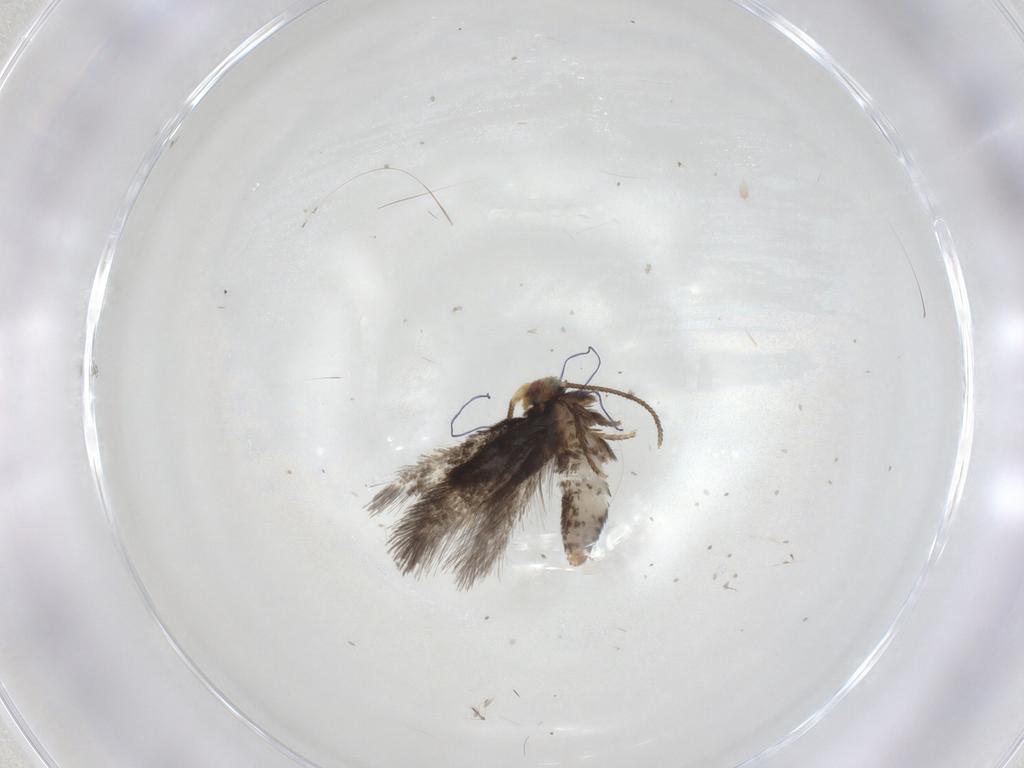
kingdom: Animalia
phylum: Arthropoda
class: Insecta
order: Lepidoptera
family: Nepticulidae
